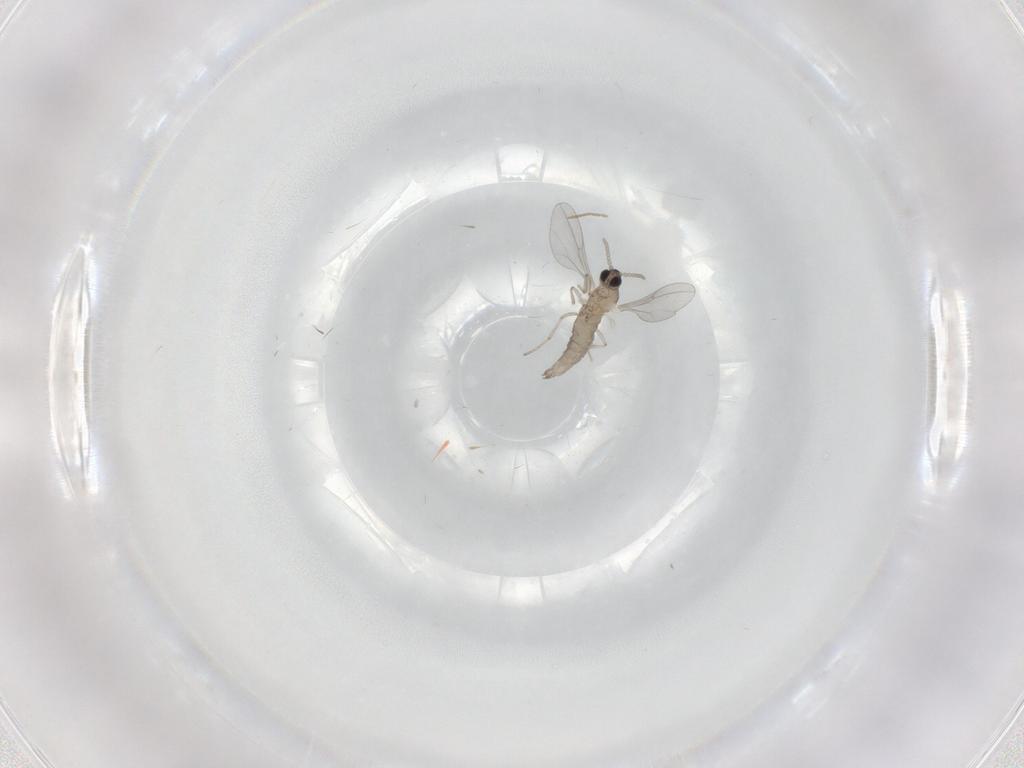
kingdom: Animalia
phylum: Arthropoda
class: Insecta
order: Diptera
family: Cecidomyiidae
